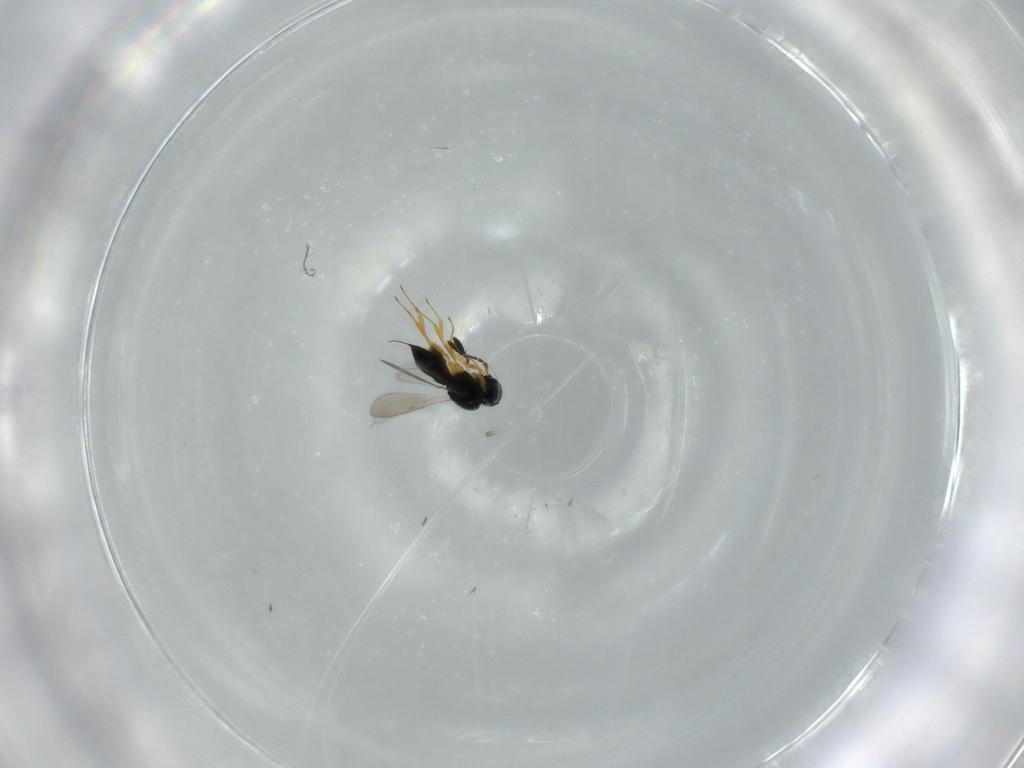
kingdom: Animalia
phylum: Arthropoda
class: Insecta
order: Hymenoptera
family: Scelionidae
